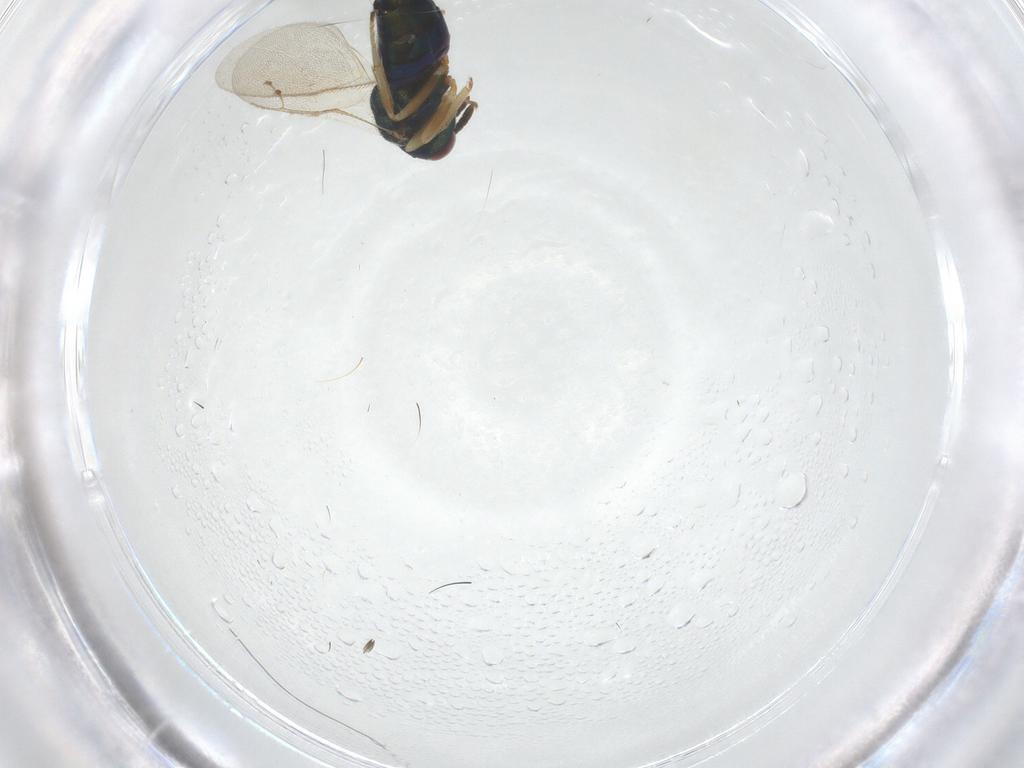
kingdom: Animalia
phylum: Arthropoda
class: Insecta
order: Hymenoptera
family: Pteromalidae
